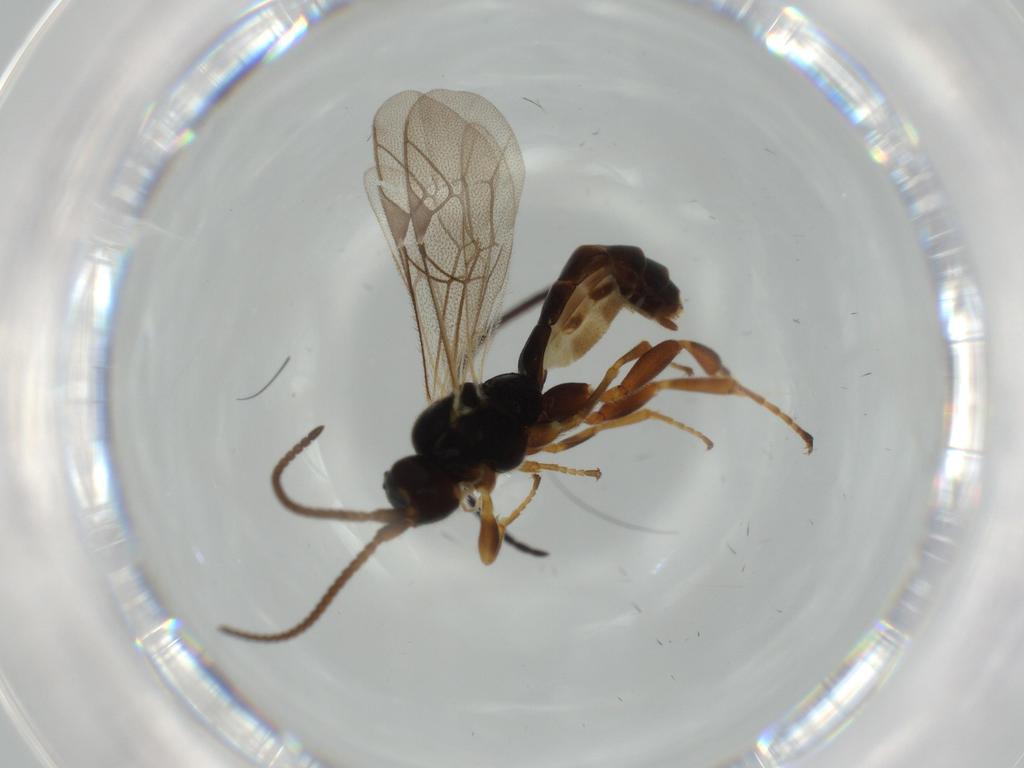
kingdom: Animalia
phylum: Arthropoda
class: Insecta
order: Hymenoptera
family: Ichneumonidae
